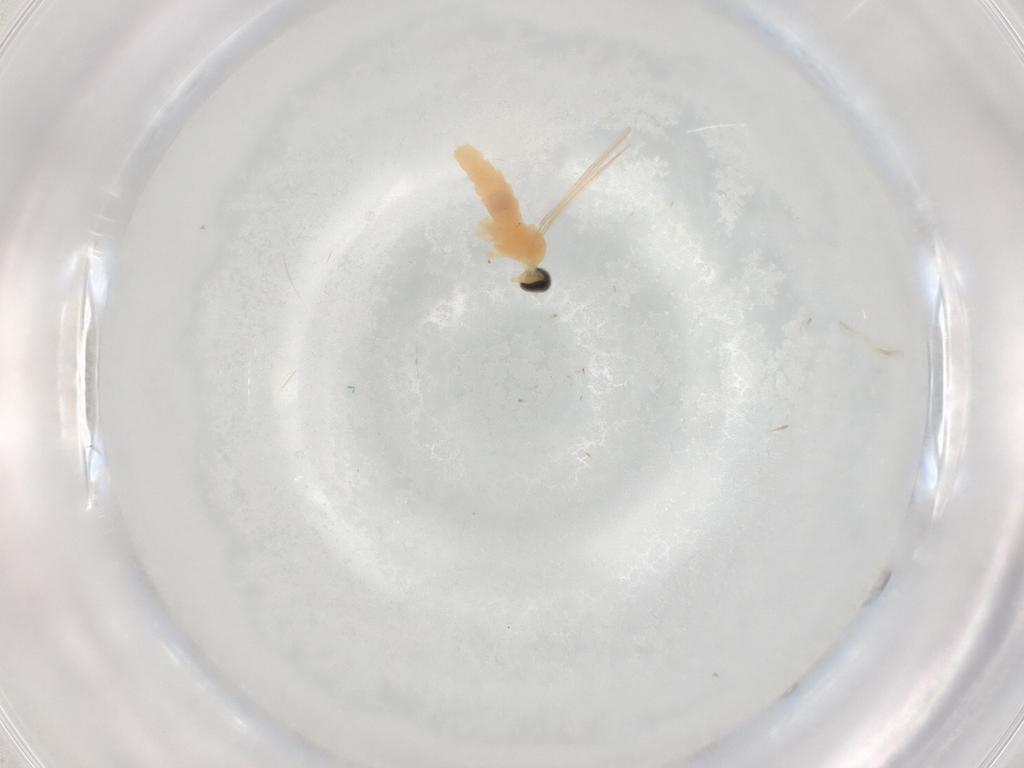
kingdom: Animalia
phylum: Arthropoda
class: Insecta
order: Diptera
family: Cecidomyiidae
